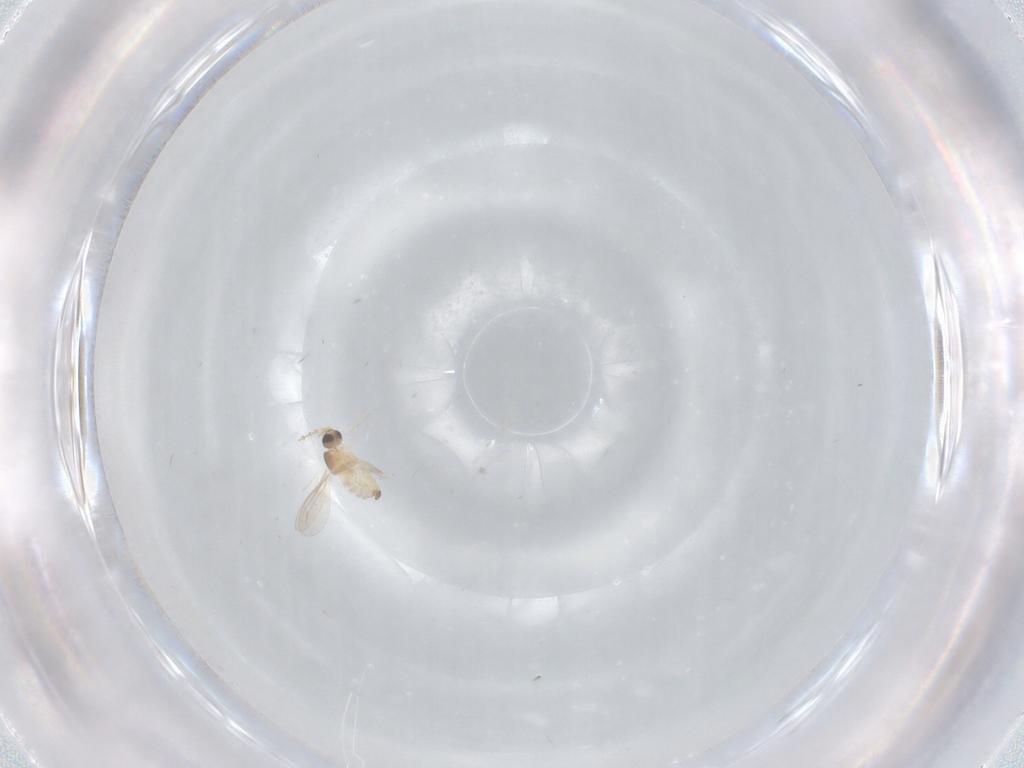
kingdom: Animalia
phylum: Arthropoda
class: Insecta
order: Diptera
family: Cecidomyiidae
